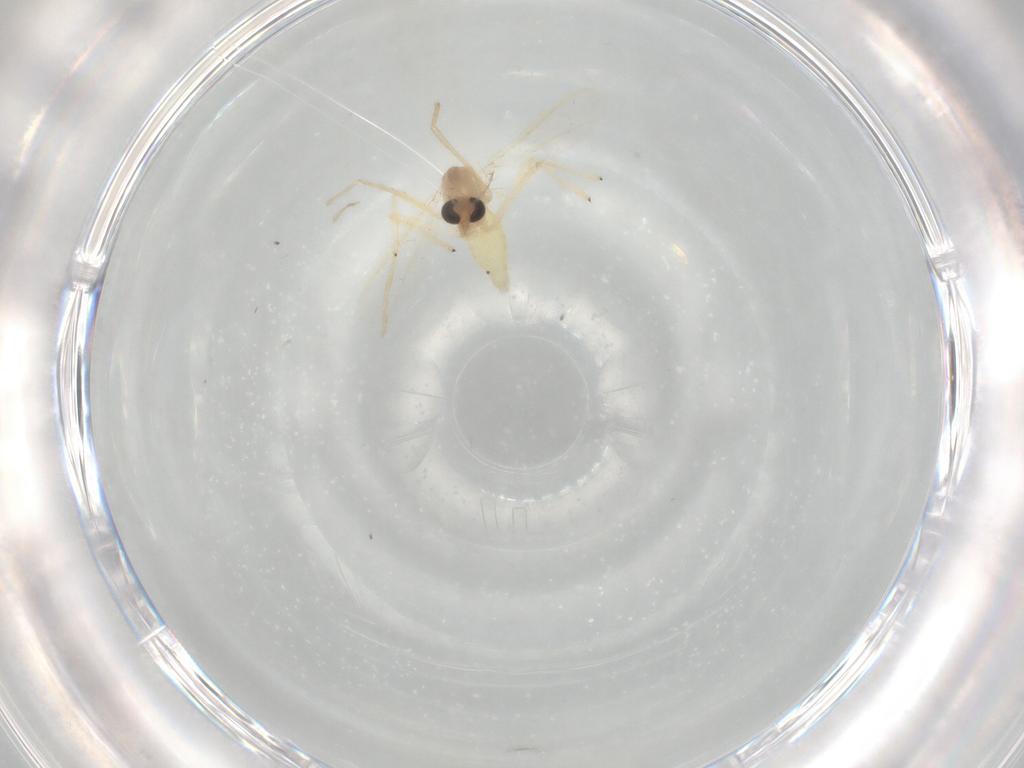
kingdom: Animalia
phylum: Arthropoda
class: Insecta
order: Diptera
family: Chironomidae
